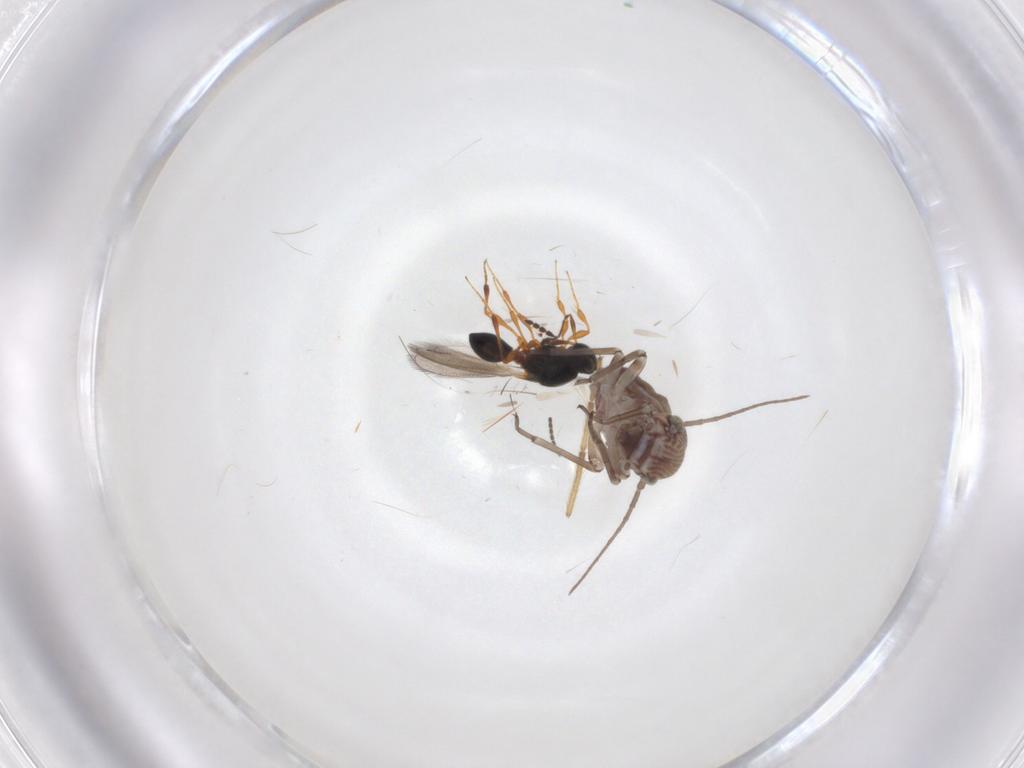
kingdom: Animalia
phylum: Arthropoda
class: Insecta
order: Diptera
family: Chironomidae
